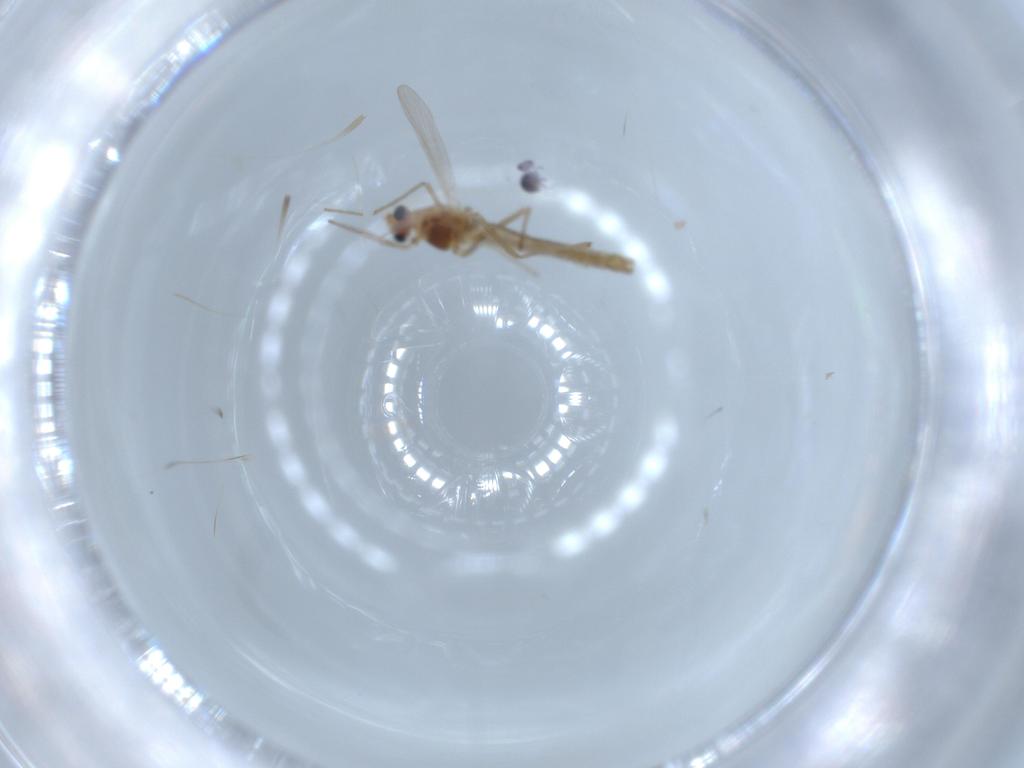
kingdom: Animalia
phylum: Arthropoda
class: Insecta
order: Diptera
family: Chironomidae
